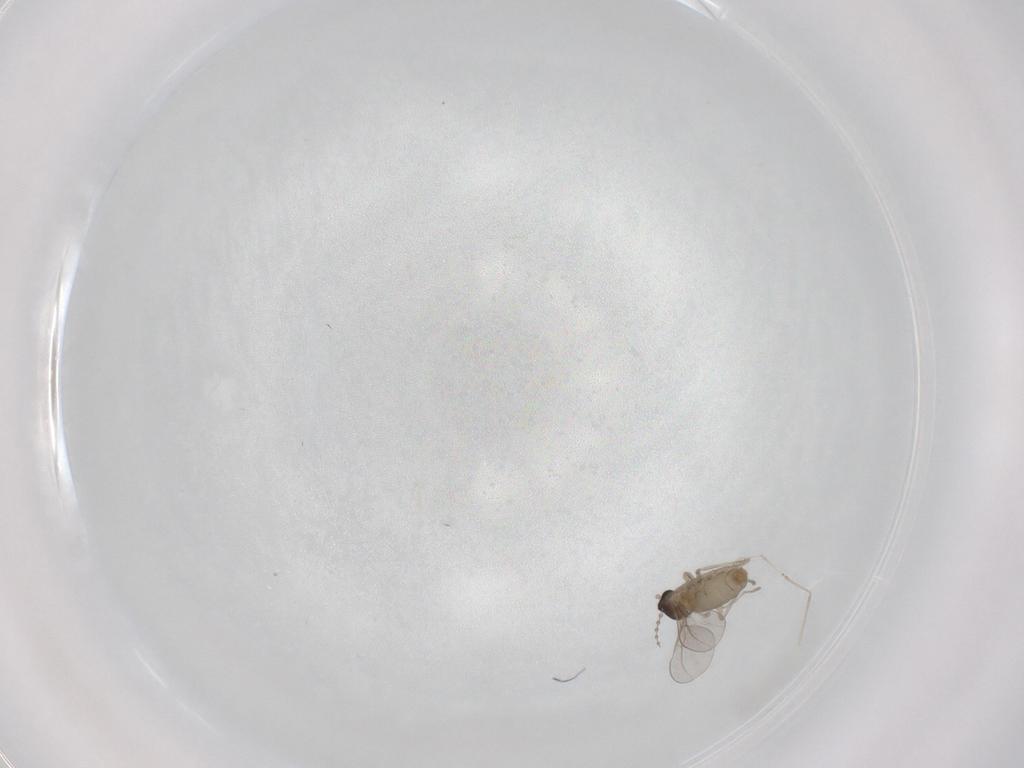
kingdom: Animalia
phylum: Arthropoda
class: Insecta
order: Diptera
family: Cecidomyiidae
